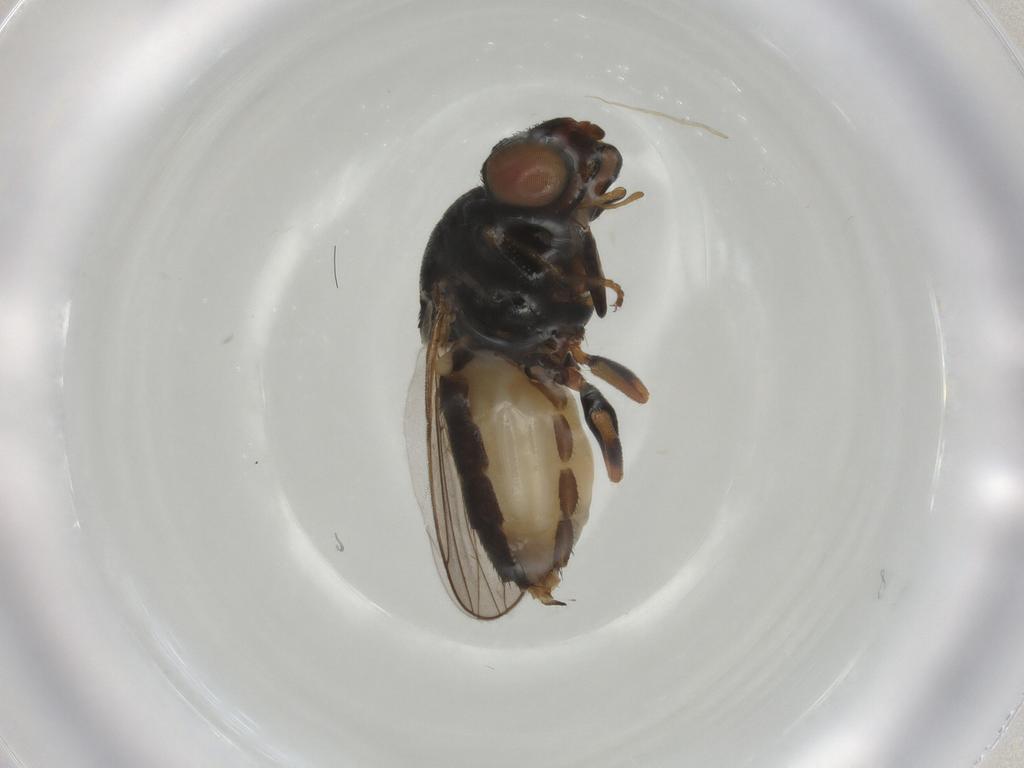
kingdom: Animalia
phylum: Arthropoda
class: Insecta
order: Diptera
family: Chloropidae
